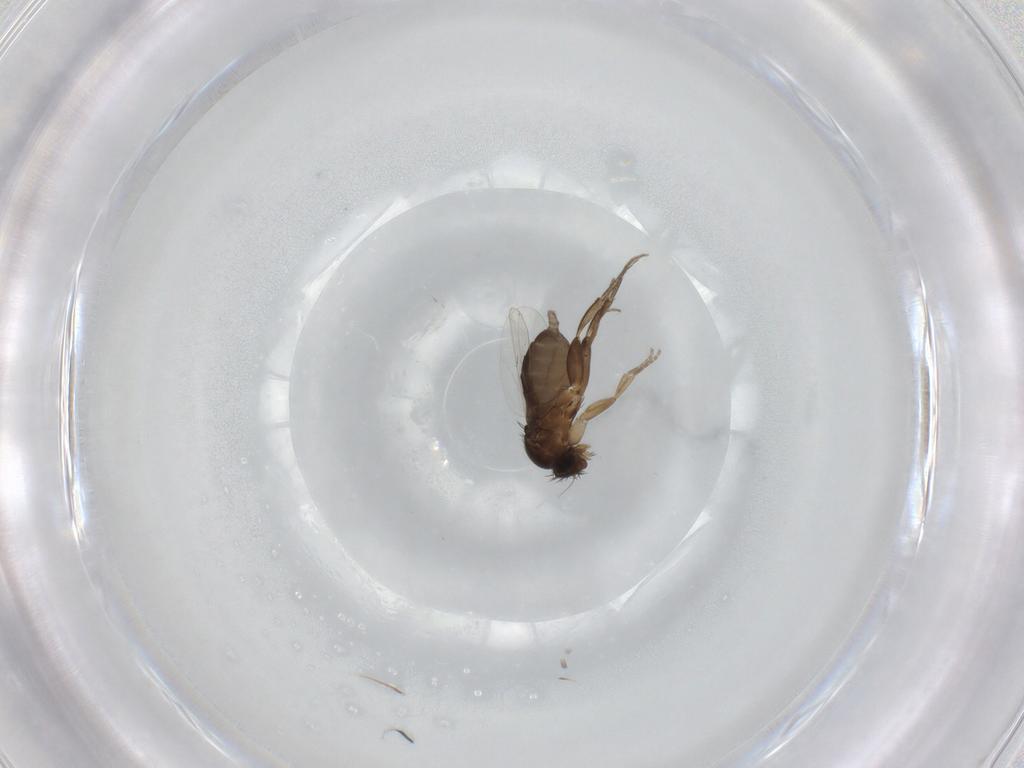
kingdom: Animalia
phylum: Arthropoda
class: Insecta
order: Diptera
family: Phoridae
